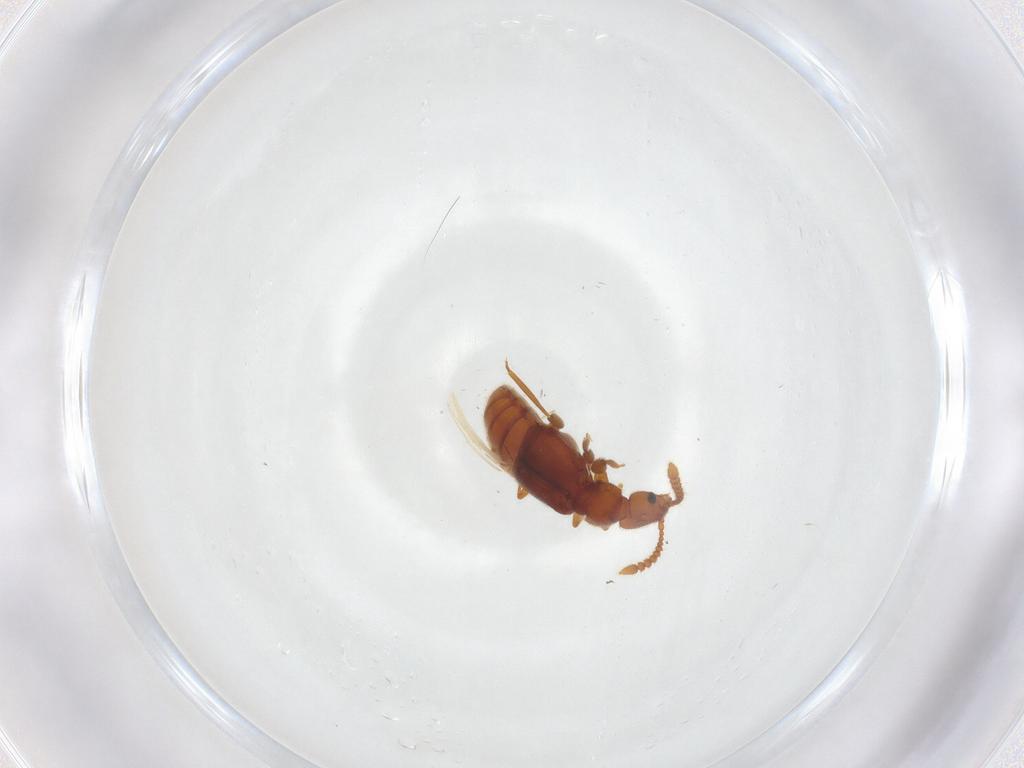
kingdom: Animalia
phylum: Arthropoda
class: Insecta
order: Coleoptera
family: Staphylinidae
